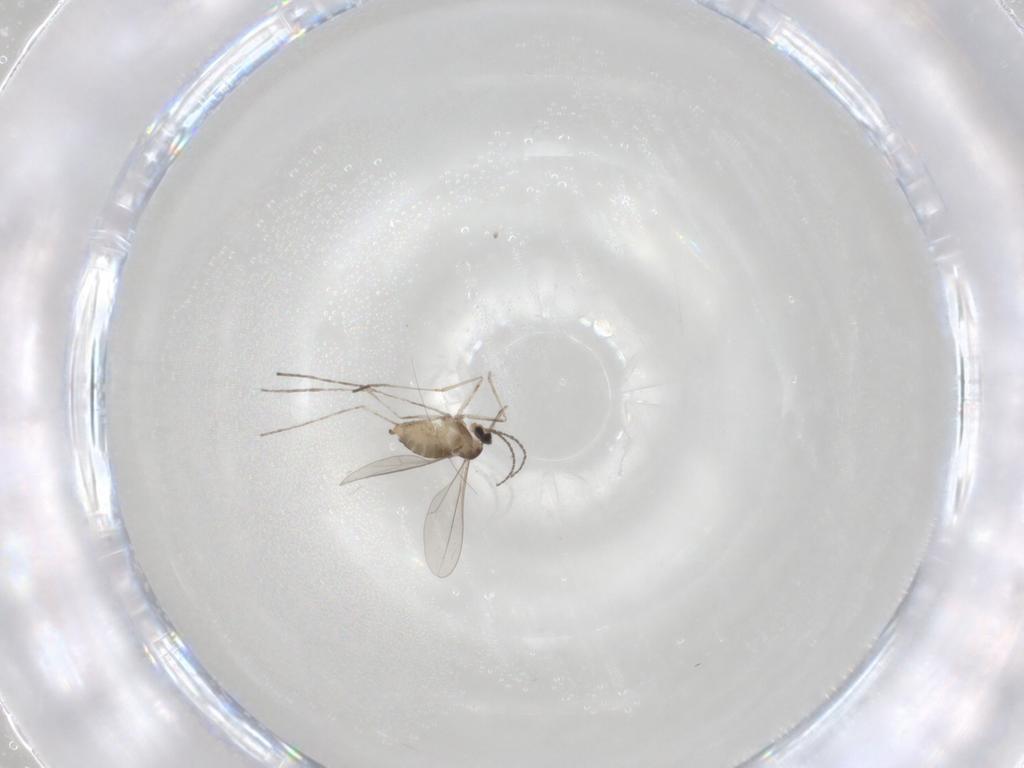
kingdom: Animalia
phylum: Arthropoda
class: Insecta
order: Diptera
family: Cecidomyiidae
